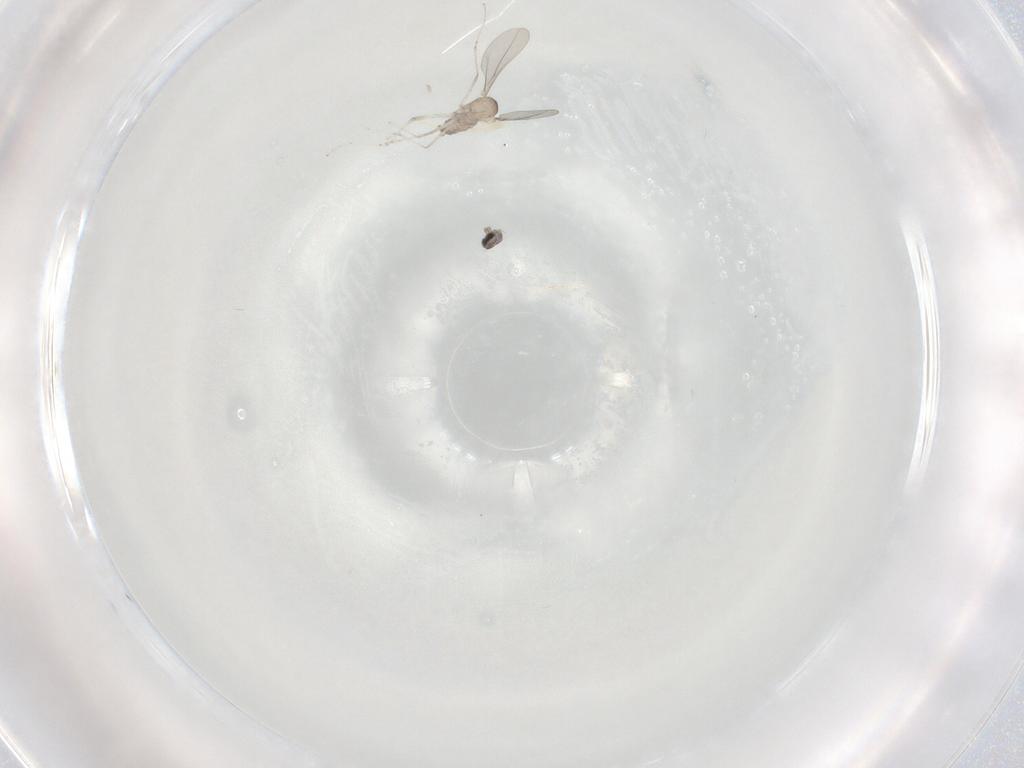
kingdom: Animalia
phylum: Arthropoda
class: Insecta
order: Diptera
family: Cecidomyiidae
